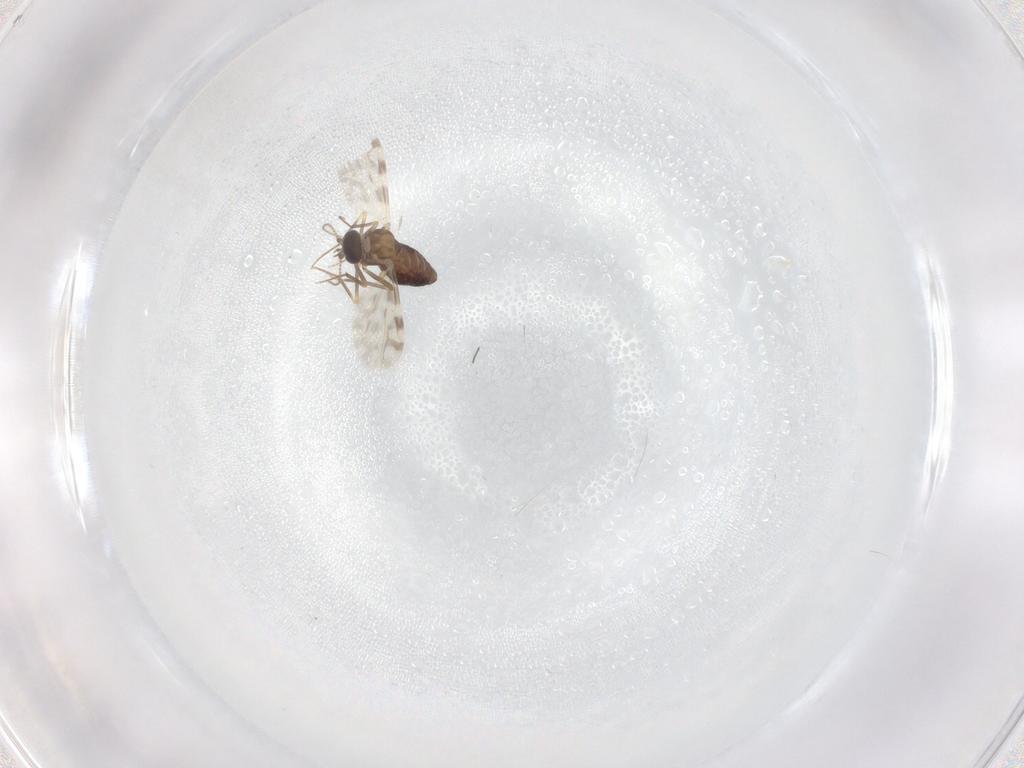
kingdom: Animalia
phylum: Arthropoda
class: Insecta
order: Diptera
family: Ceratopogonidae
